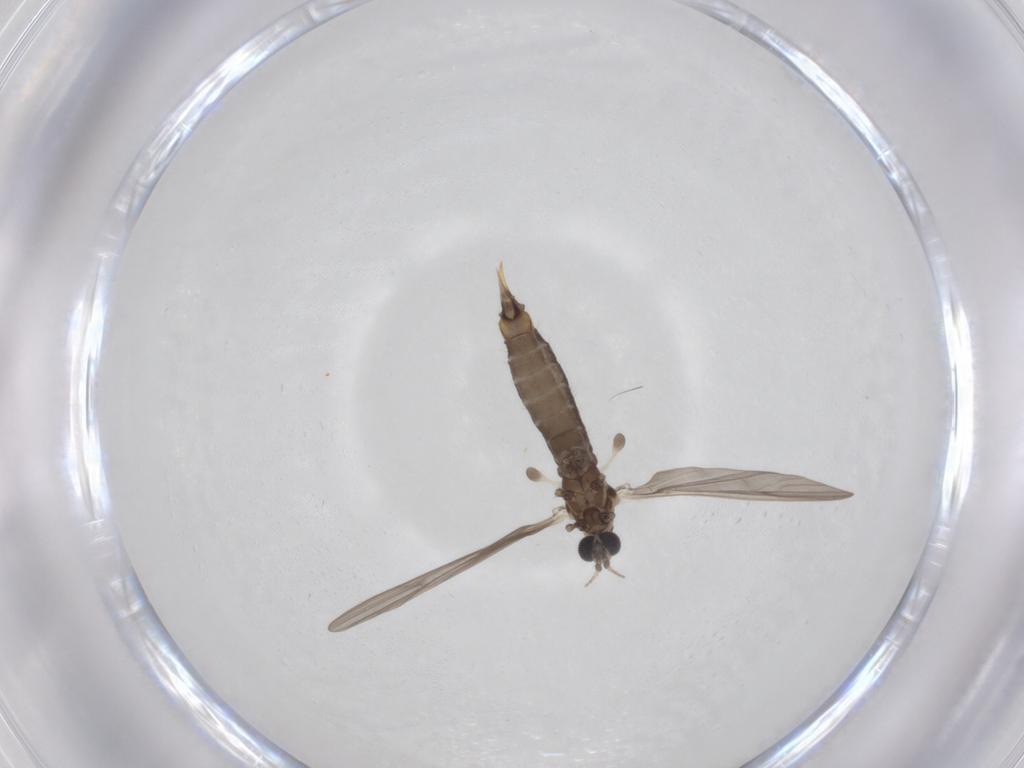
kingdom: Animalia
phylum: Arthropoda
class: Insecta
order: Diptera
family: Limoniidae
